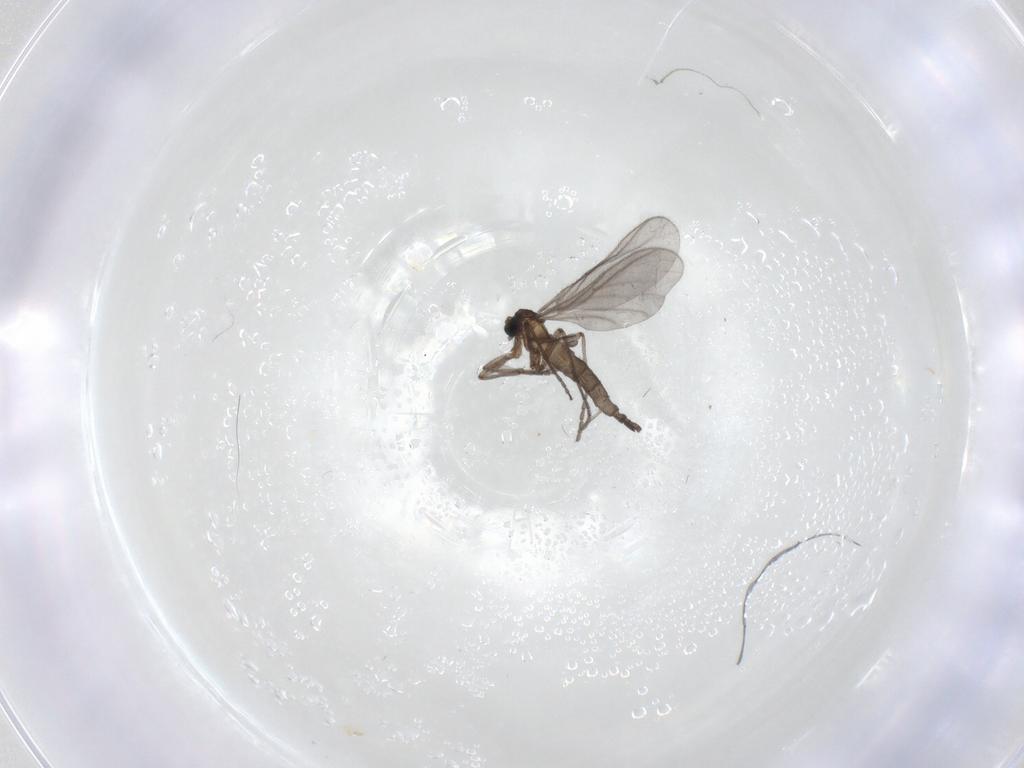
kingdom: Animalia
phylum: Arthropoda
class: Insecta
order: Diptera
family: Sciaridae
